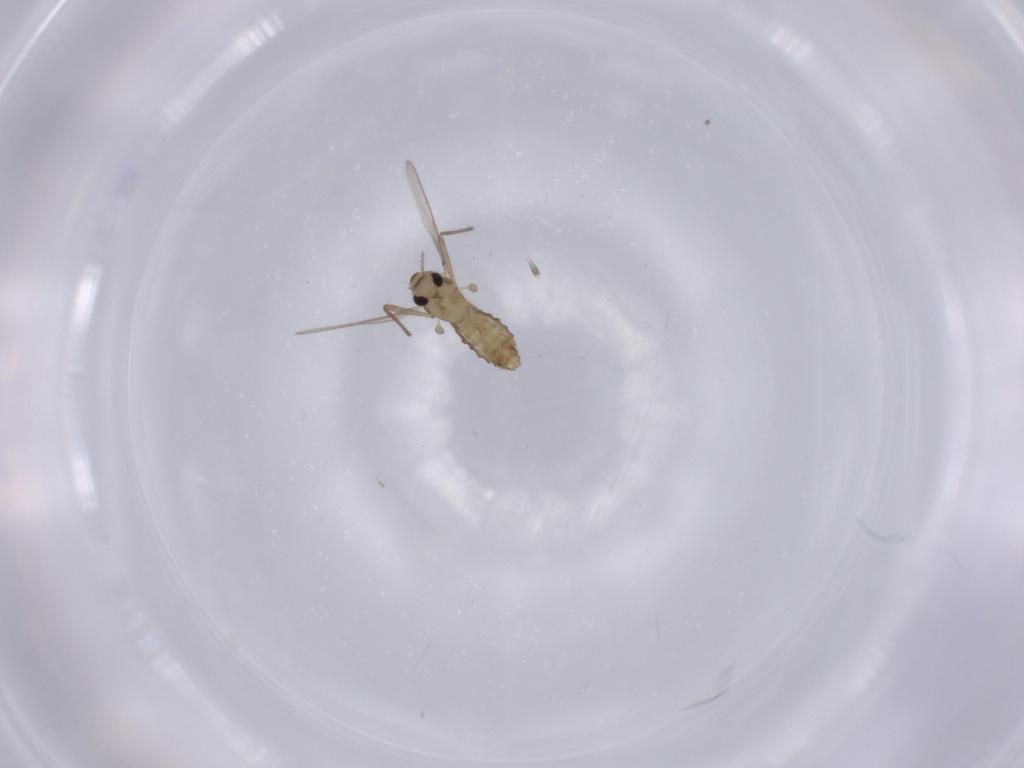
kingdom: Animalia
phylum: Arthropoda
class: Insecta
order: Diptera
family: Chironomidae
